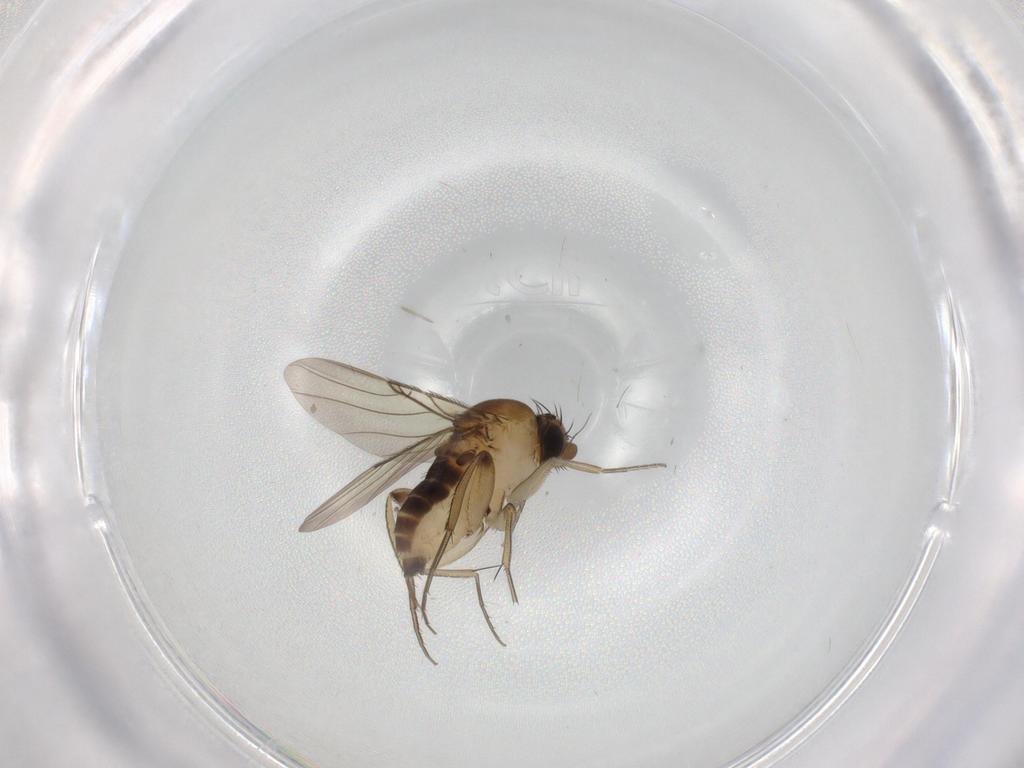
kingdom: Animalia
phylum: Arthropoda
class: Insecta
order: Diptera
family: Phoridae
